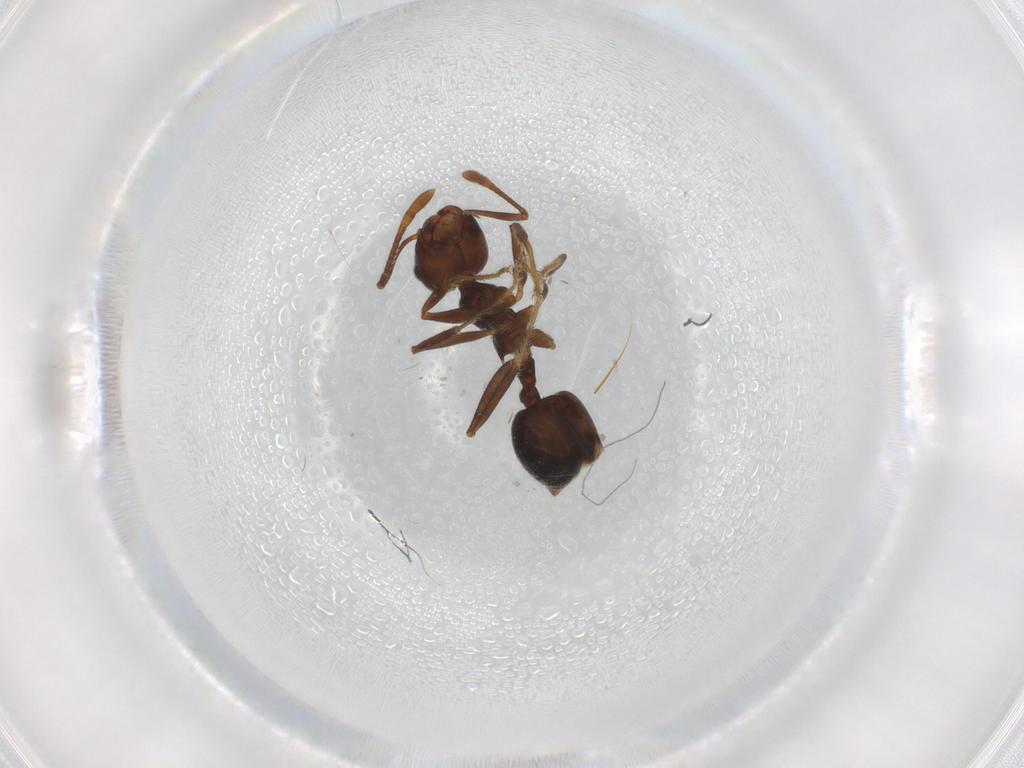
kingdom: Animalia
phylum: Arthropoda
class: Insecta
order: Hymenoptera
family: Formicidae
